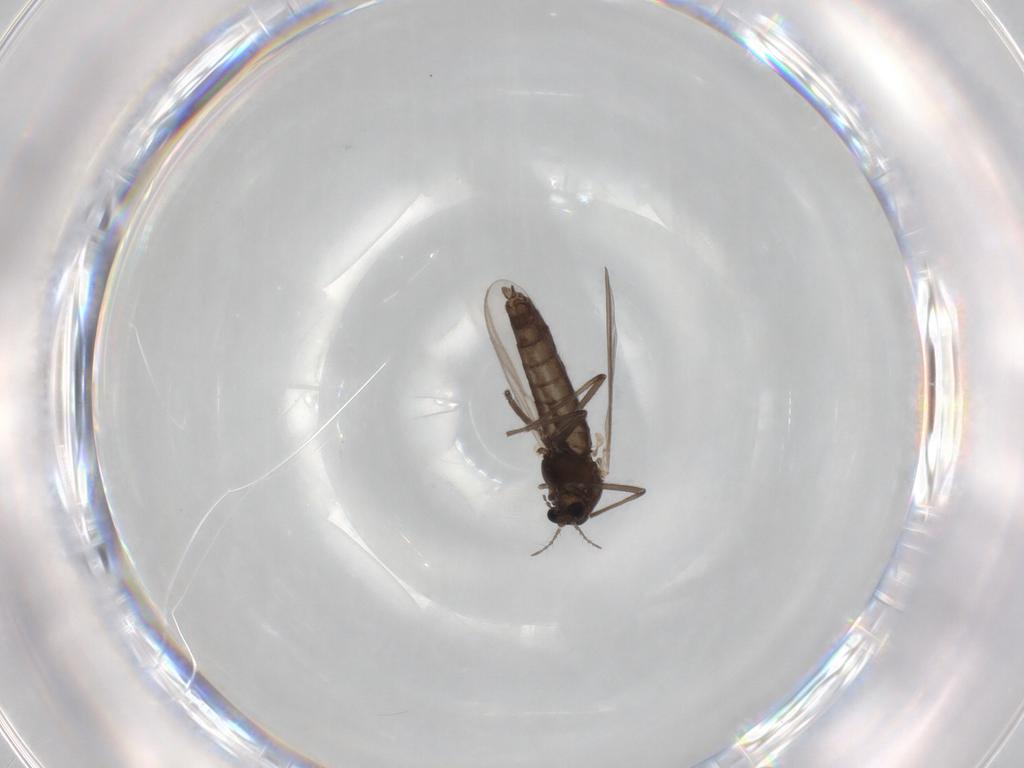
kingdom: Animalia
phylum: Arthropoda
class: Insecta
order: Diptera
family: Chironomidae
